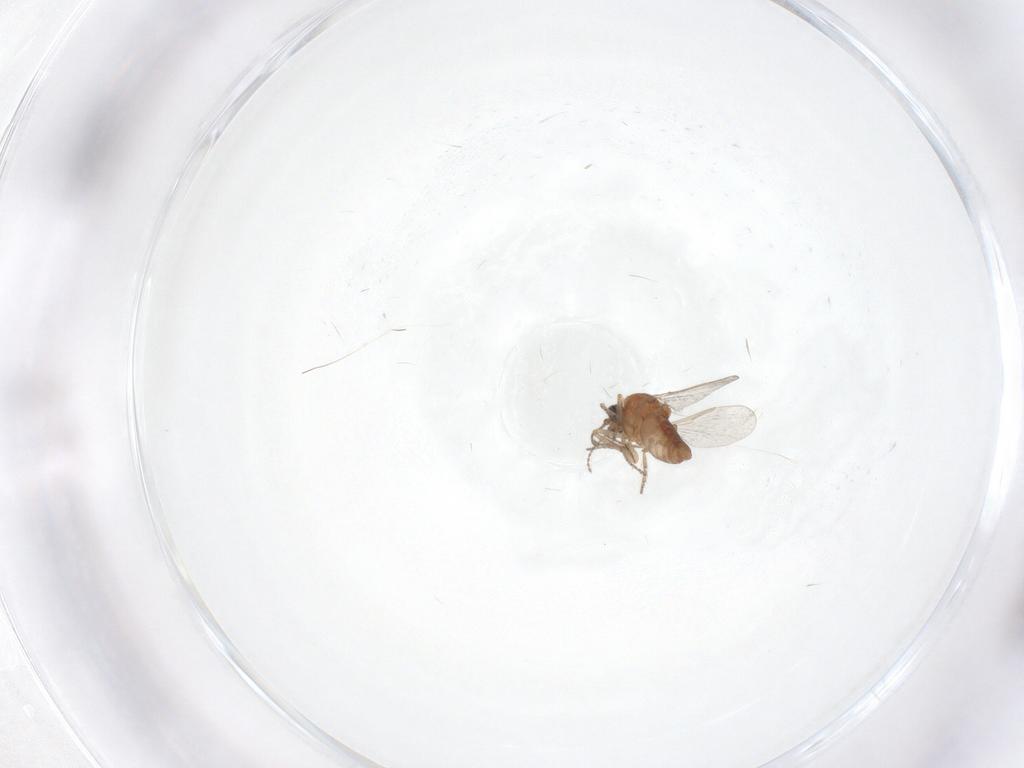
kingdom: Animalia
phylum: Arthropoda
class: Insecta
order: Diptera
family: Ceratopogonidae
